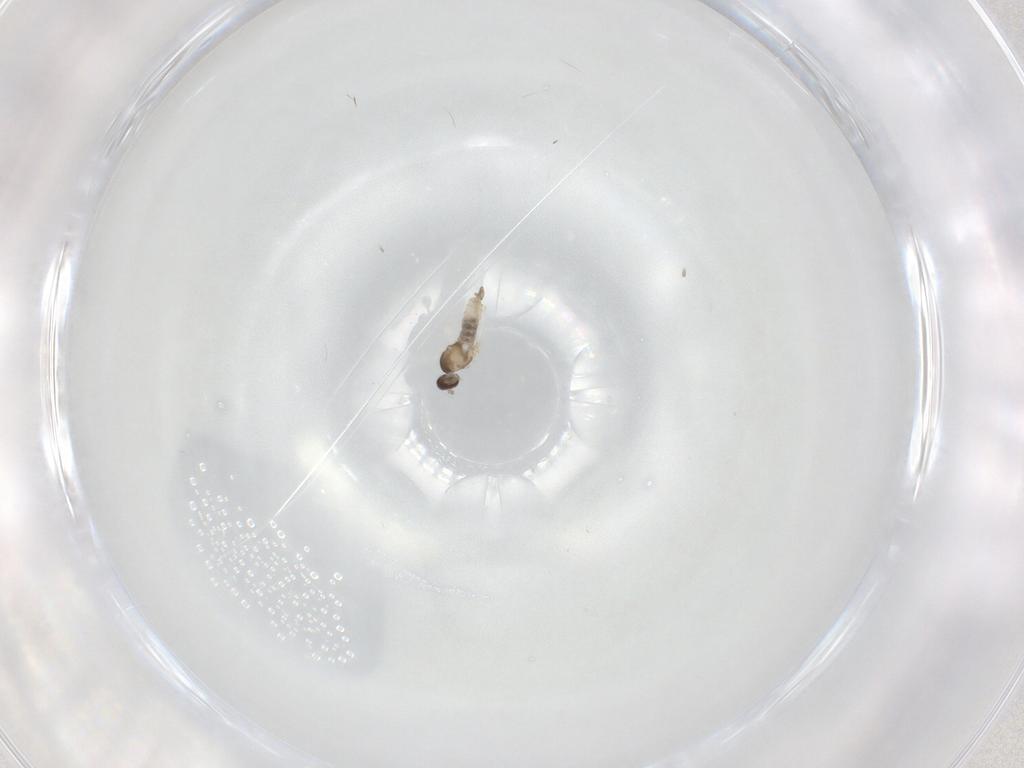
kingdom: Animalia
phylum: Arthropoda
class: Insecta
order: Diptera
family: Cecidomyiidae
